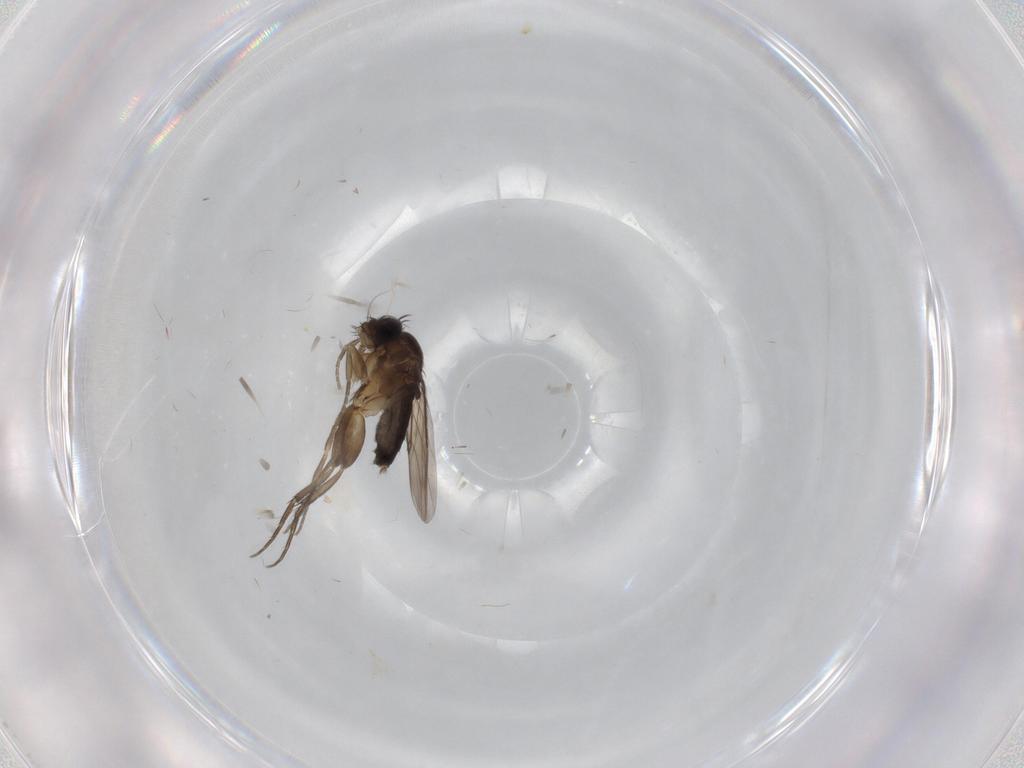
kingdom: Animalia
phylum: Arthropoda
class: Insecta
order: Diptera
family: Phoridae
